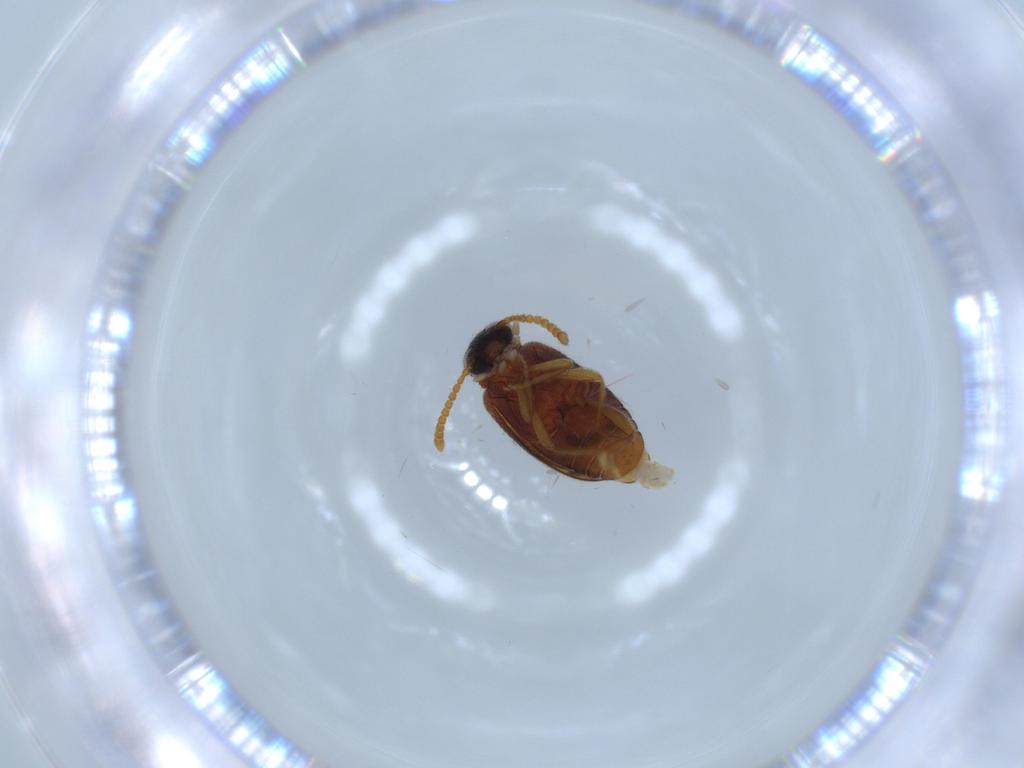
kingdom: Animalia
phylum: Arthropoda
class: Insecta
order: Coleoptera
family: Aderidae
